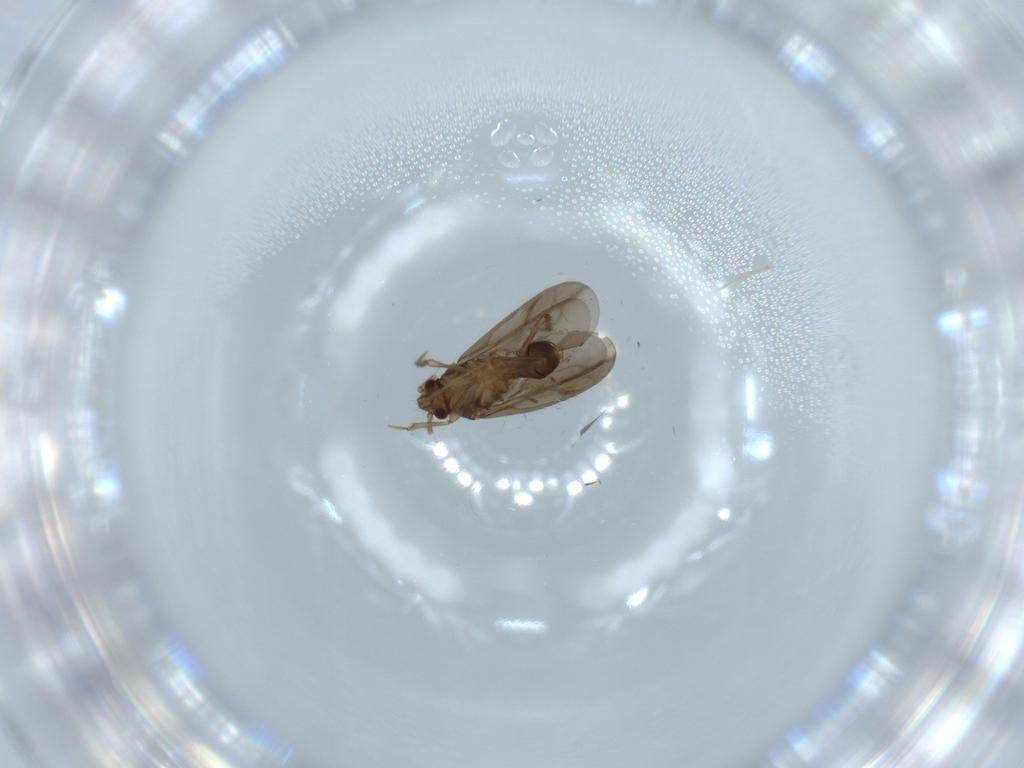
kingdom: Animalia
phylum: Arthropoda
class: Insecta
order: Hemiptera
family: Ceratocombidae
